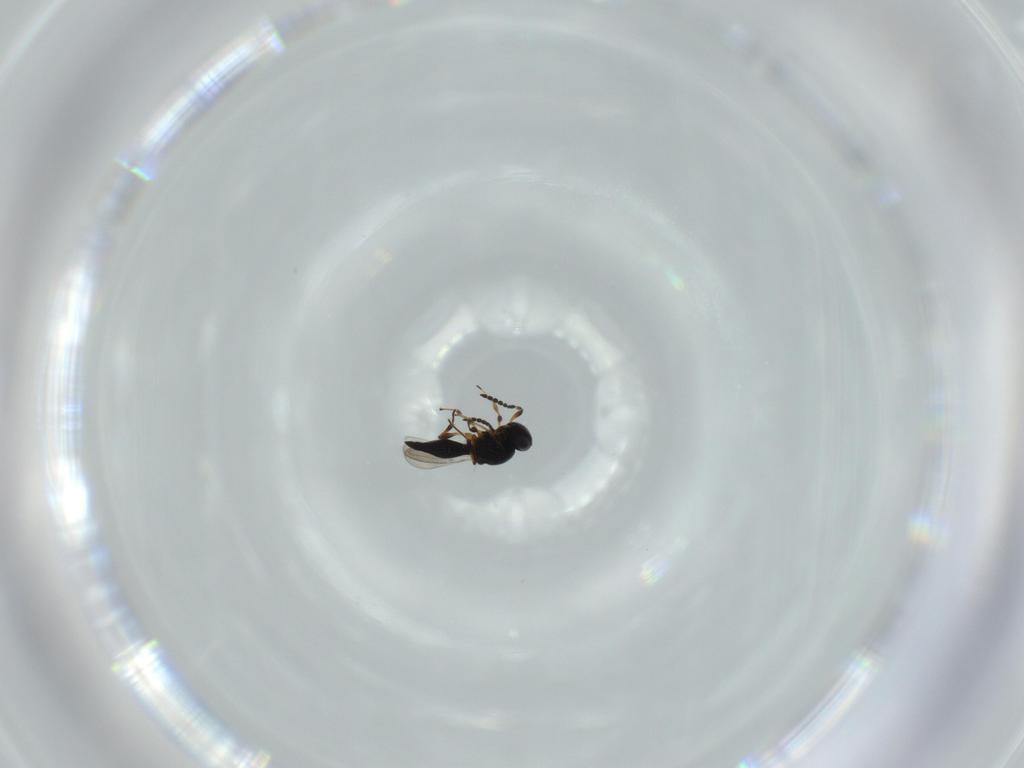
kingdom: Animalia
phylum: Arthropoda
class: Insecta
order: Hymenoptera
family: Platygastridae
